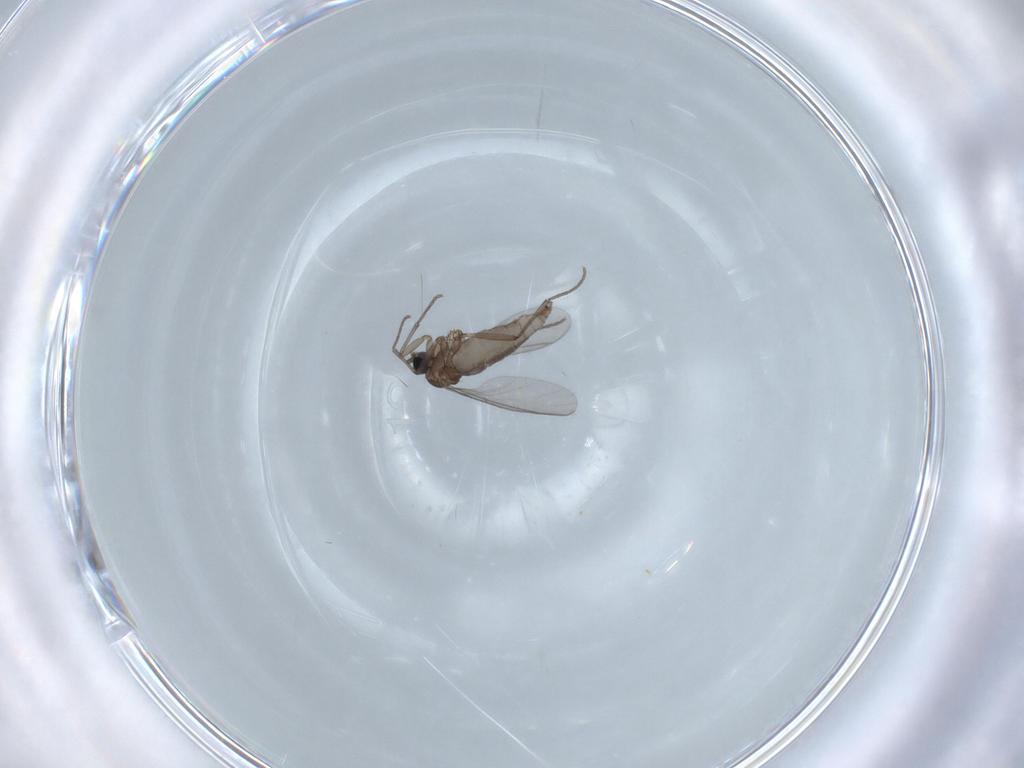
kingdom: Animalia
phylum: Arthropoda
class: Insecta
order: Diptera
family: Sciaridae
